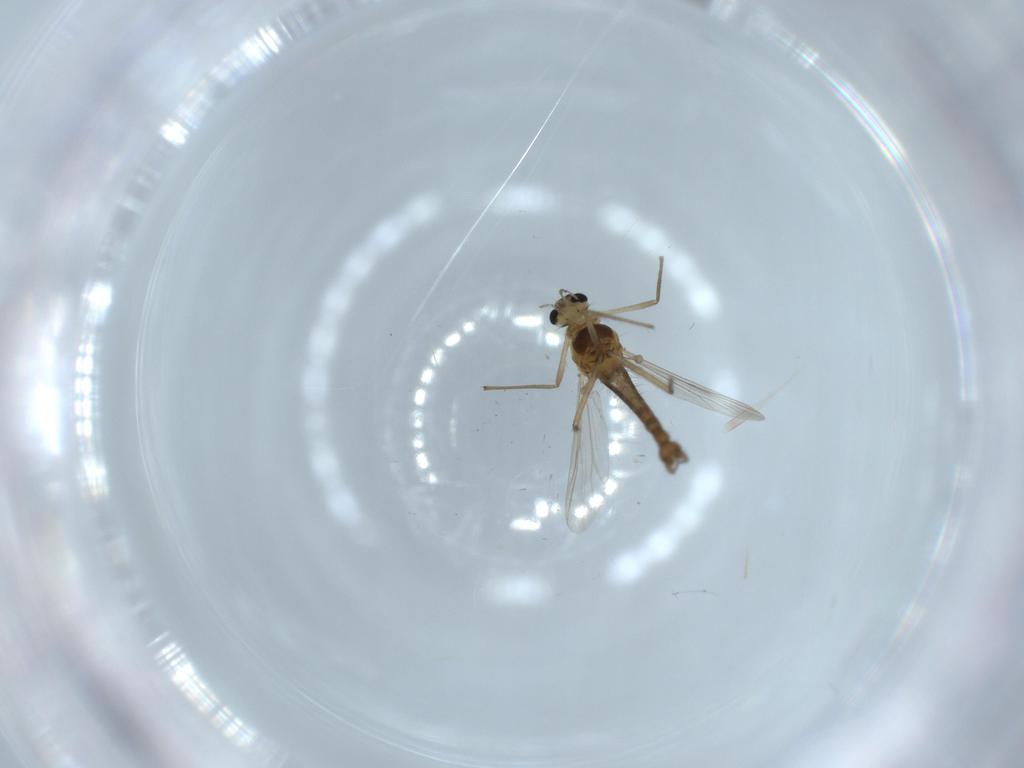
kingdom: Animalia
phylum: Arthropoda
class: Insecta
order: Diptera
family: Chironomidae
